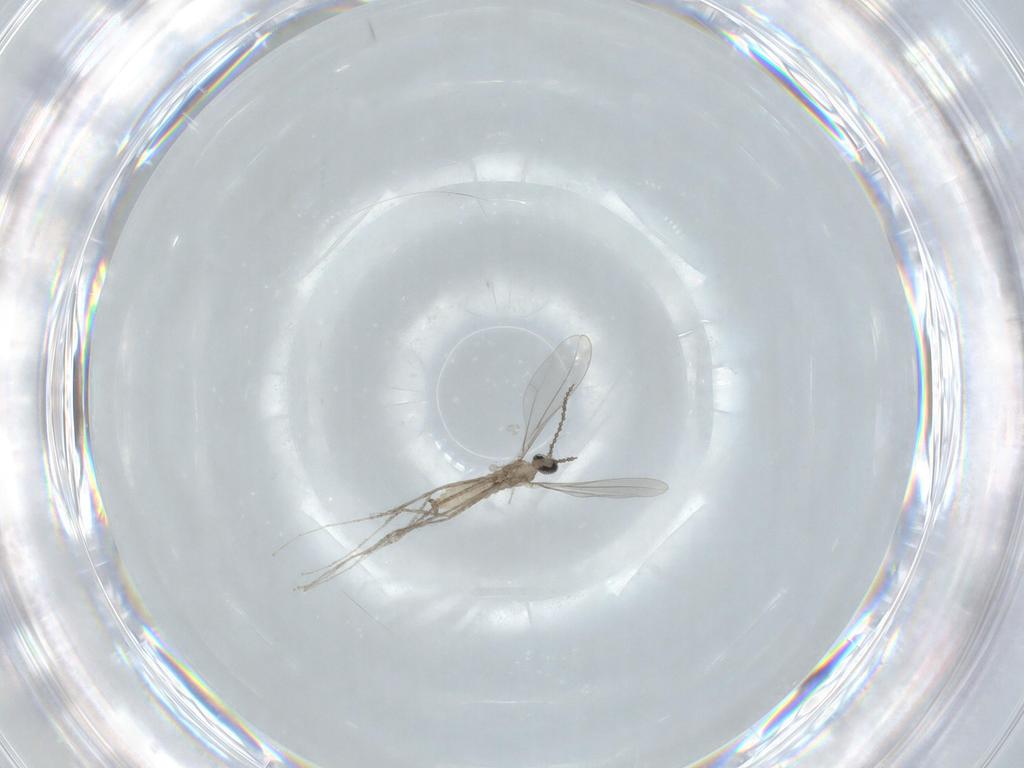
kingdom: Animalia
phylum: Arthropoda
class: Insecta
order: Diptera
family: Cecidomyiidae
